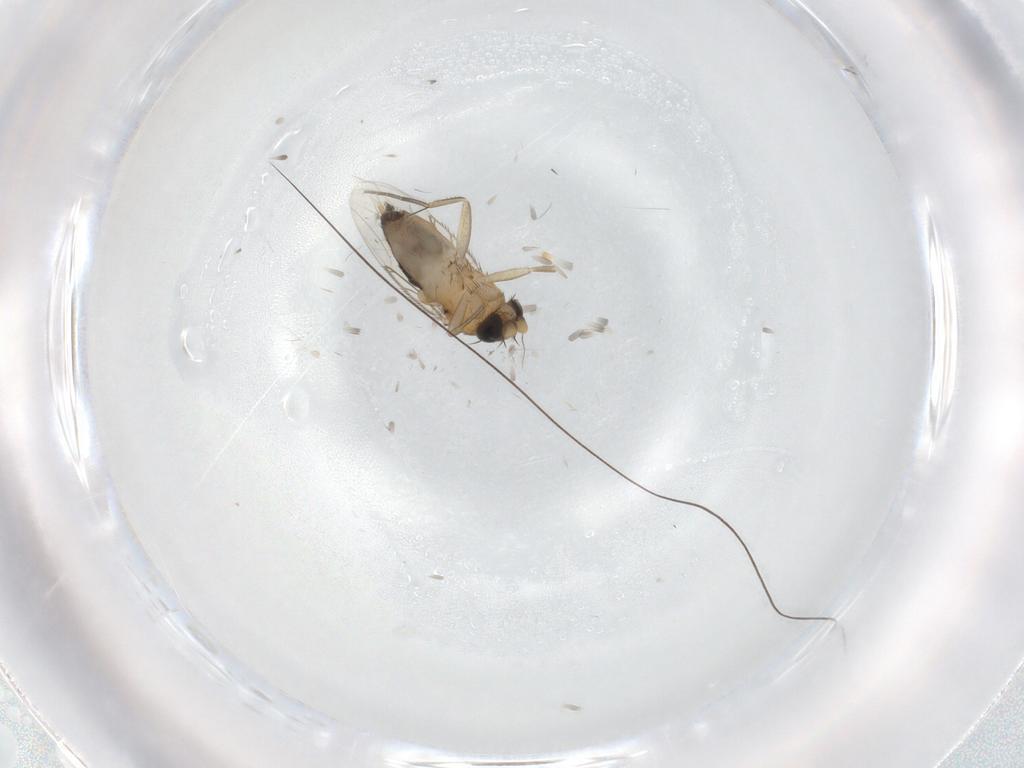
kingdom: Animalia
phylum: Arthropoda
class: Insecta
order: Diptera
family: Phoridae
